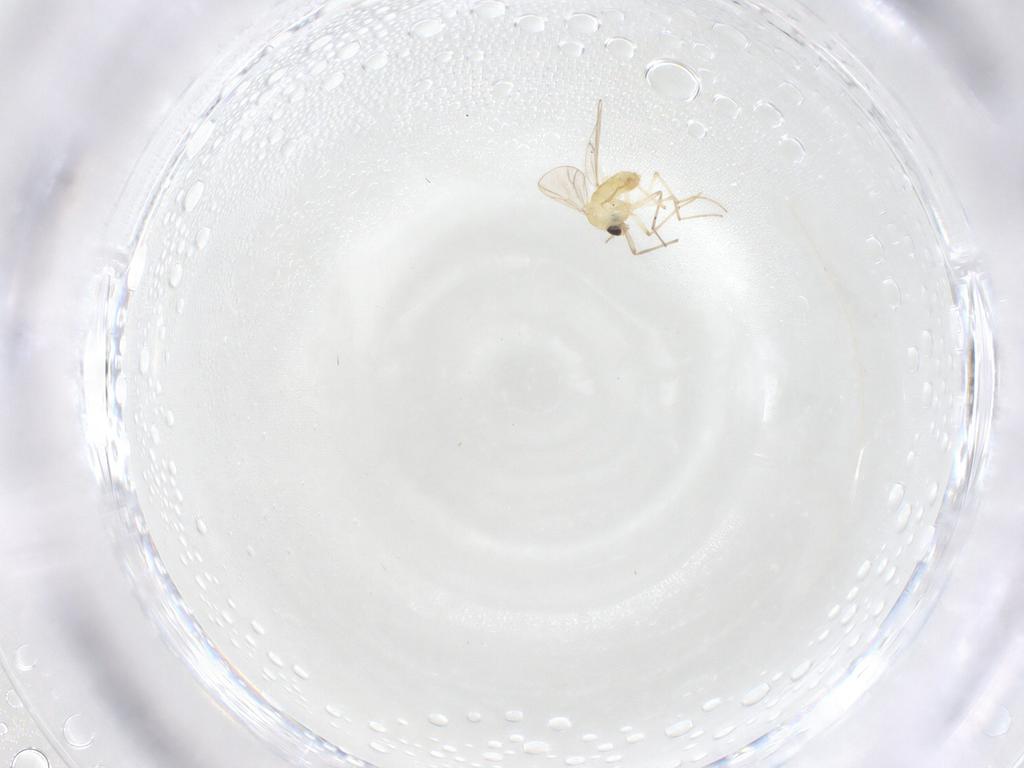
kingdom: Animalia
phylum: Arthropoda
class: Insecta
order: Diptera
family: Chironomidae
